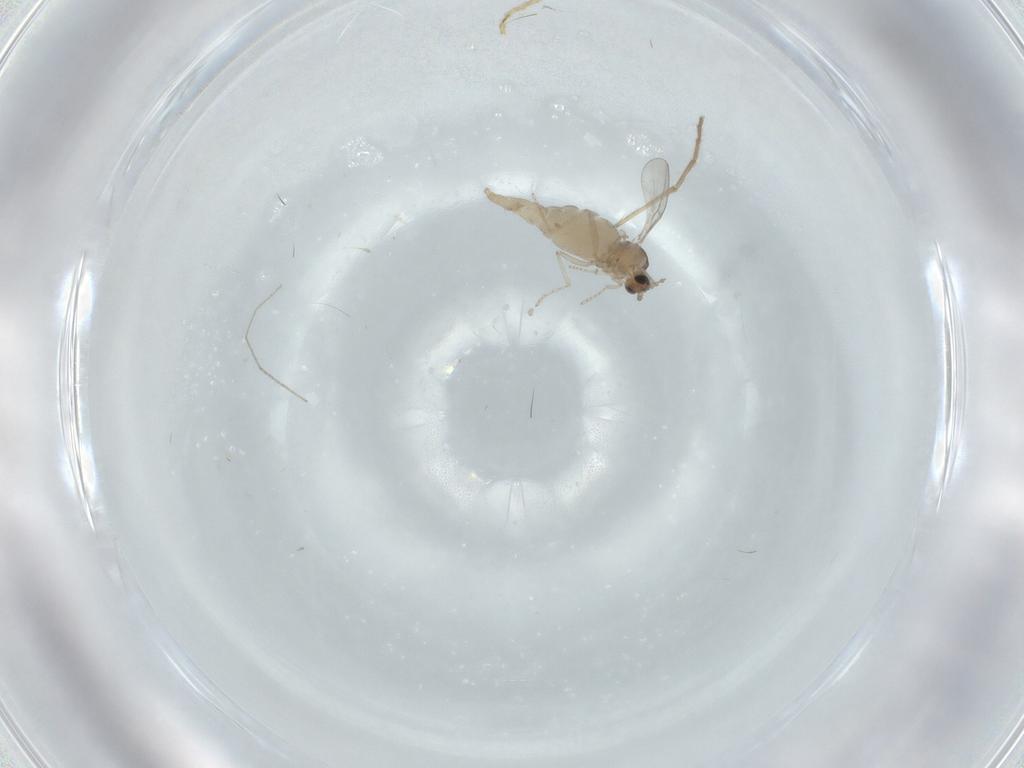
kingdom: Animalia
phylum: Arthropoda
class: Insecta
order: Diptera
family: Cecidomyiidae
